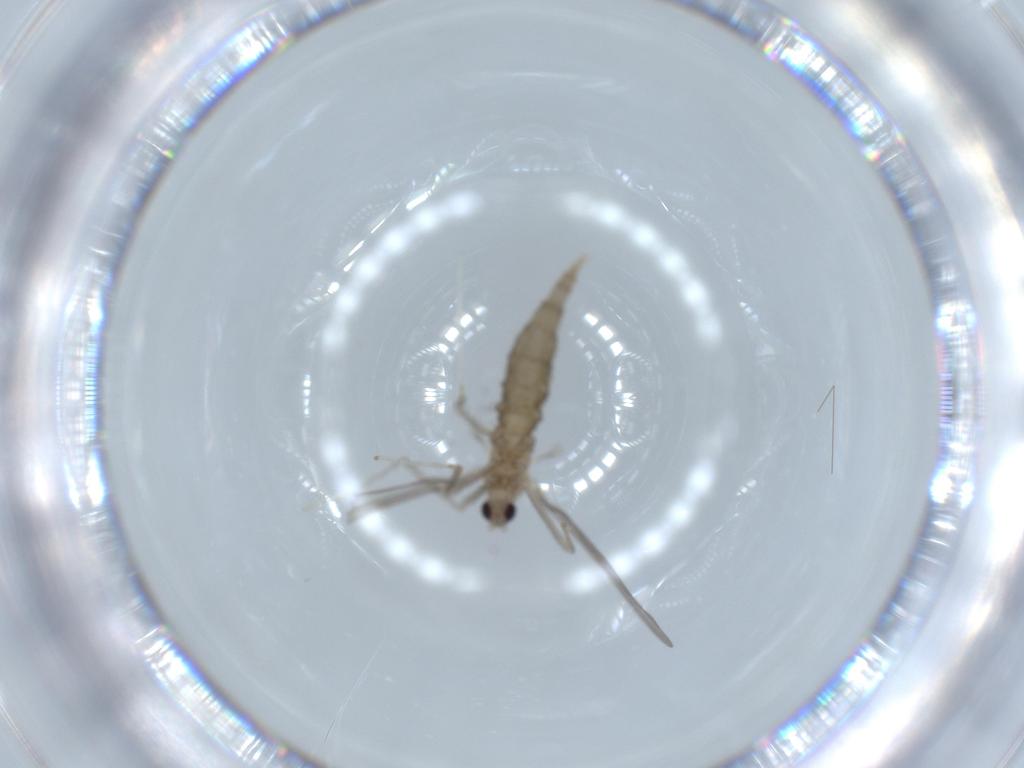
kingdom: Animalia
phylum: Arthropoda
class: Insecta
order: Diptera
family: Cecidomyiidae
